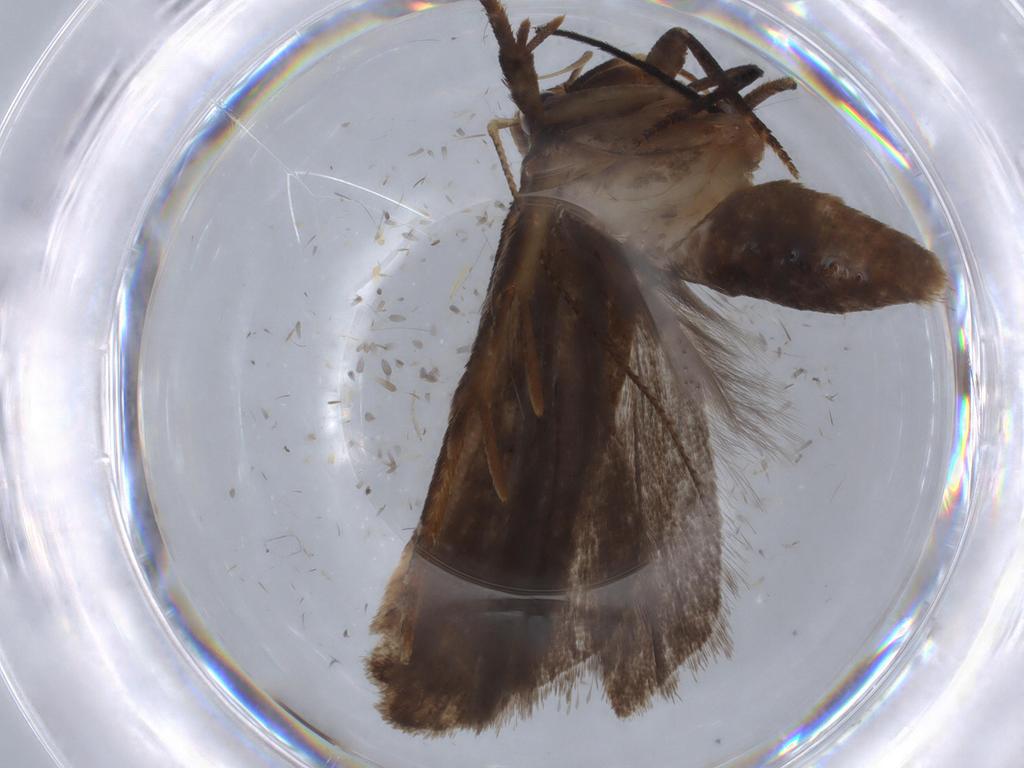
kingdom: Animalia
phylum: Arthropoda
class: Insecta
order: Lepidoptera
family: Gelechiidae
